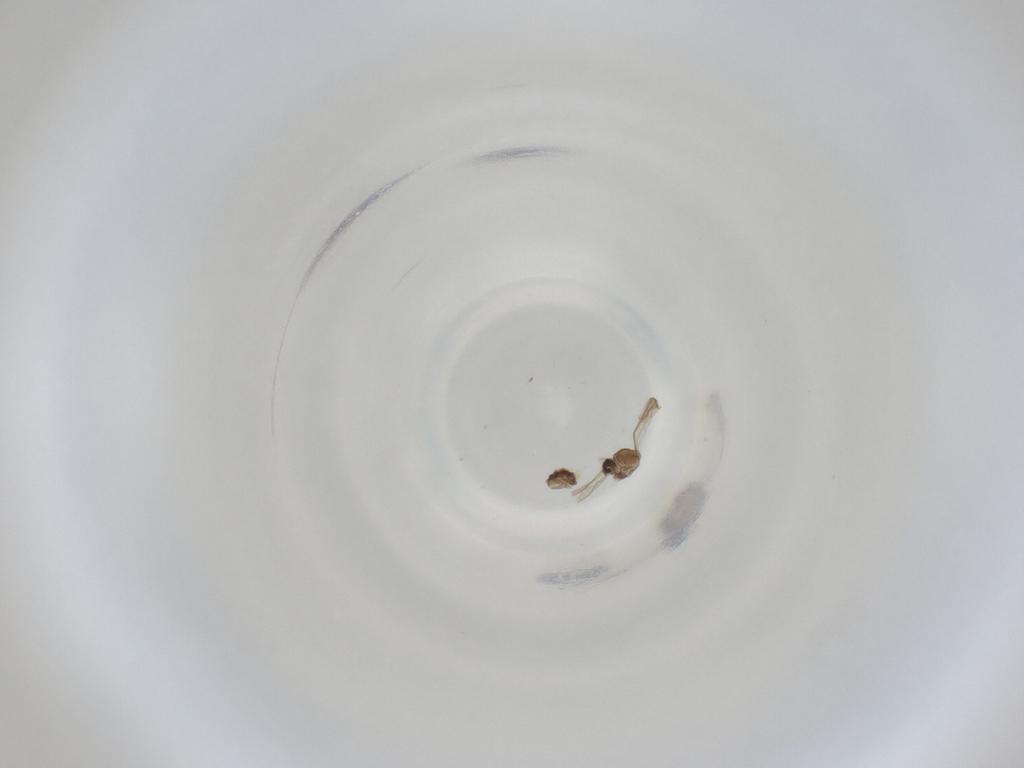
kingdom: Animalia
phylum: Arthropoda
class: Insecta
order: Diptera
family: Cecidomyiidae
